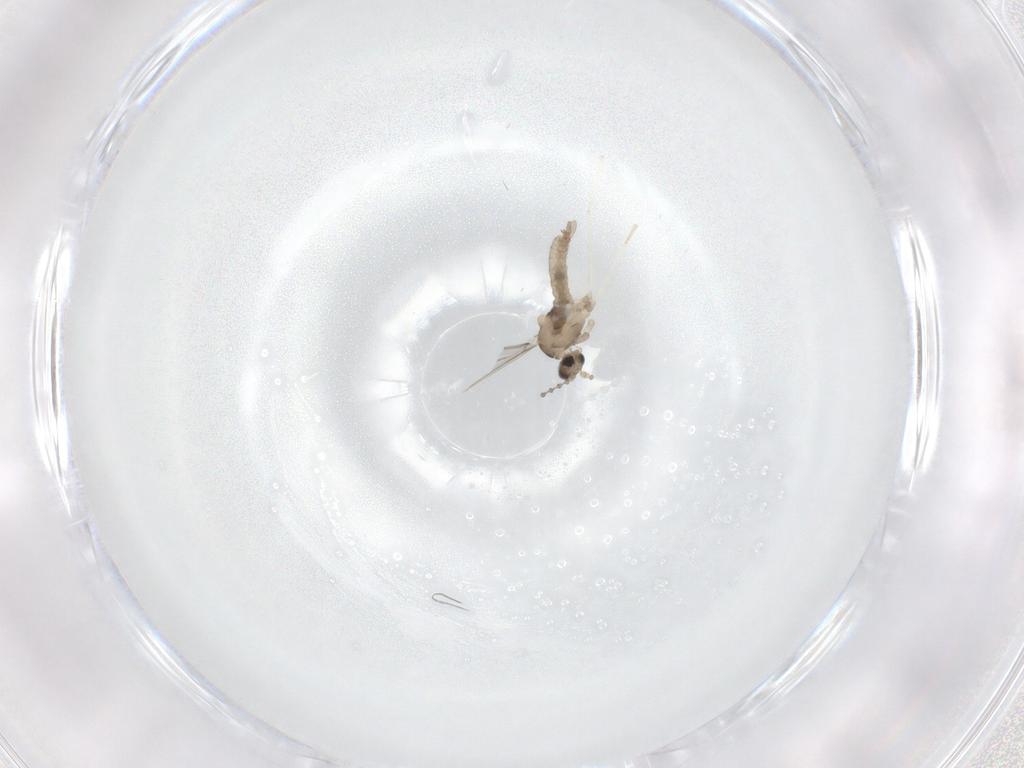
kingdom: Animalia
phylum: Arthropoda
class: Insecta
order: Diptera
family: Cecidomyiidae
